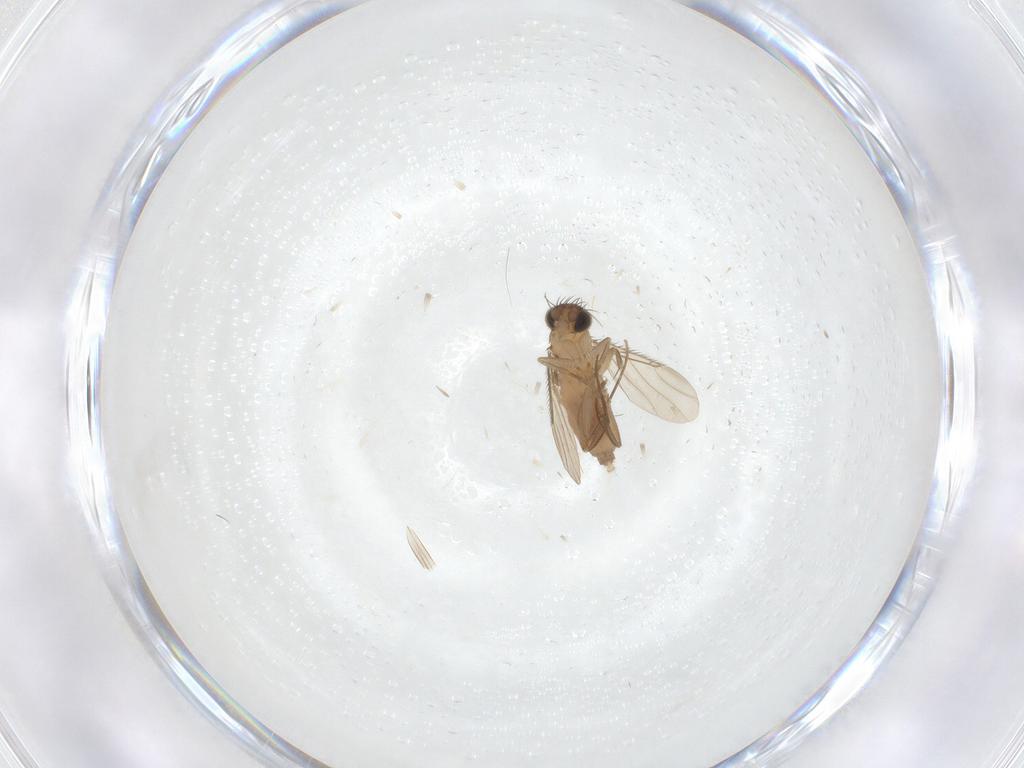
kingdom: Animalia
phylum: Arthropoda
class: Insecta
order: Diptera
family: Phoridae
